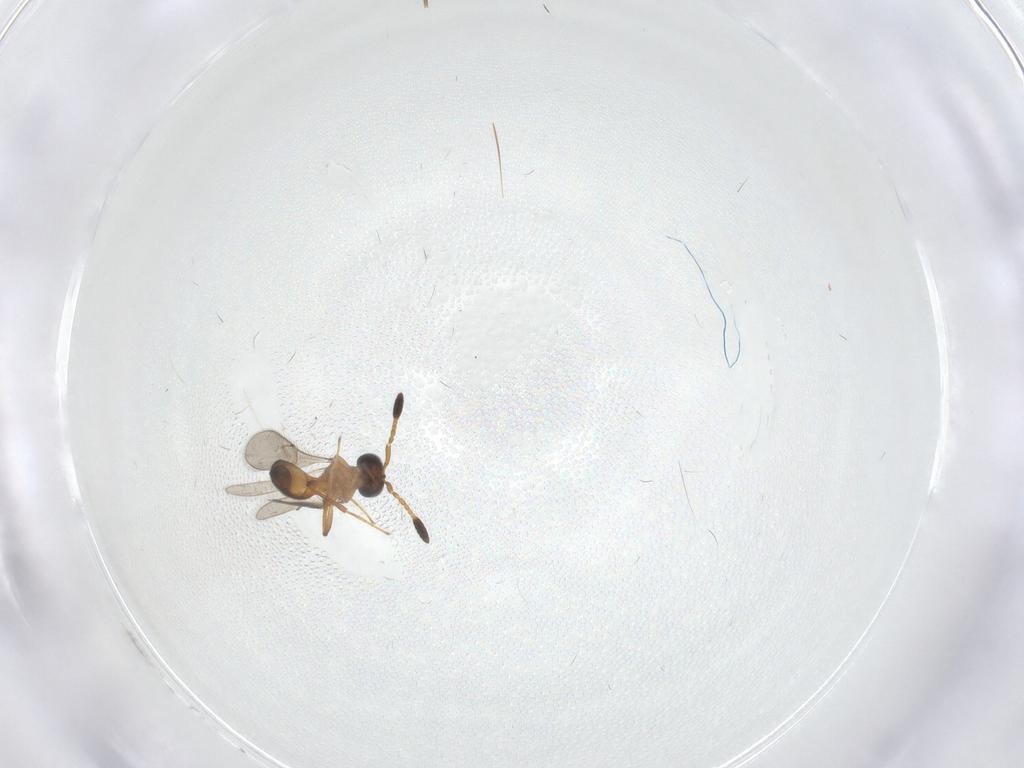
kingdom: Animalia
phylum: Arthropoda
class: Insecta
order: Hymenoptera
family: Scelionidae
